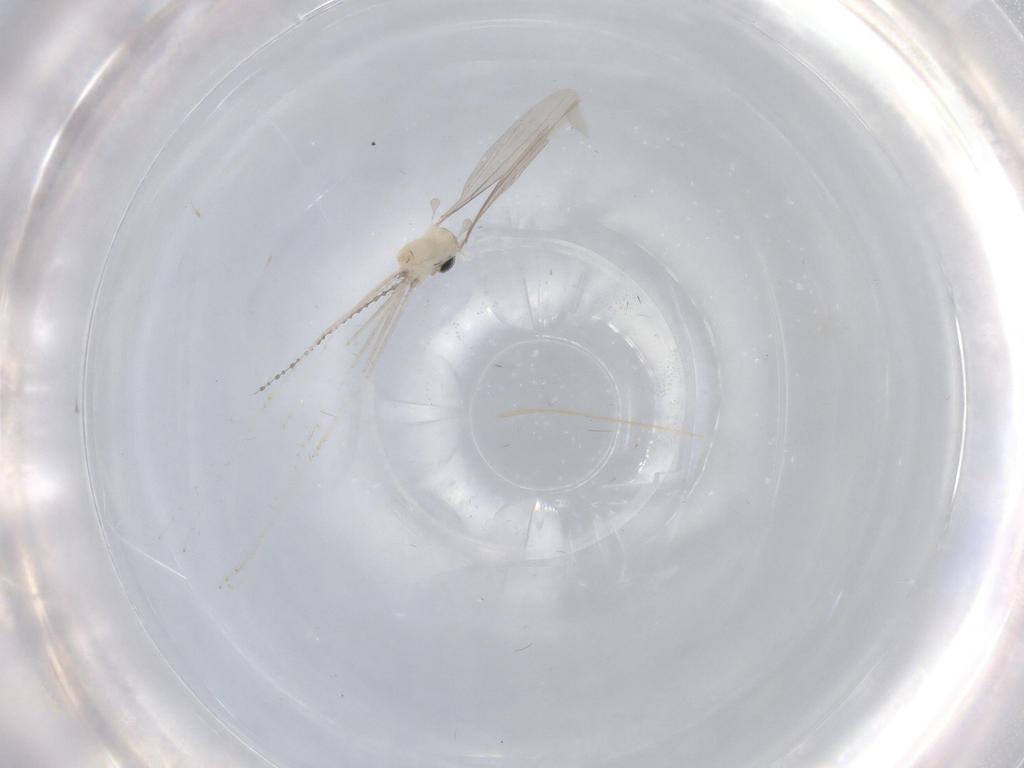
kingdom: Animalia
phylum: Arthropoda
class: Insecta
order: Diptera
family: Cecidomyiidae
